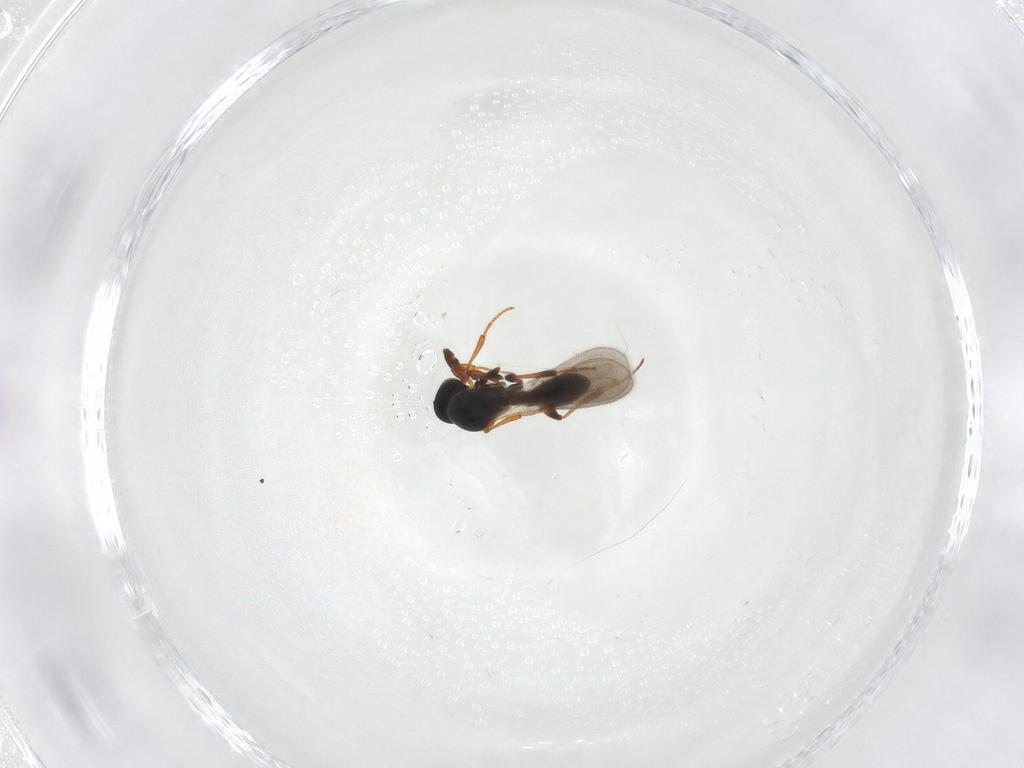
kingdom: Animalia
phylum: Arthropoda
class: Insecta
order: Hymenoptera
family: Platygastridae
